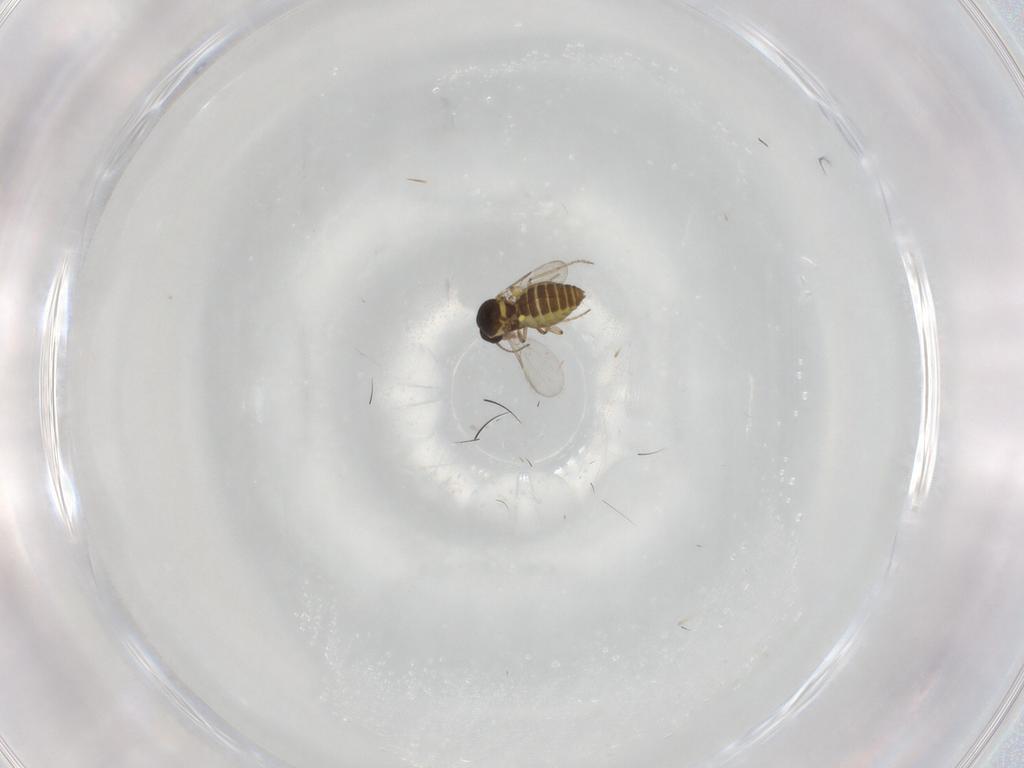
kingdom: Animalia
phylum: Arthropoda
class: Insecta
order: Diptera
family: Ceratopogonidae
